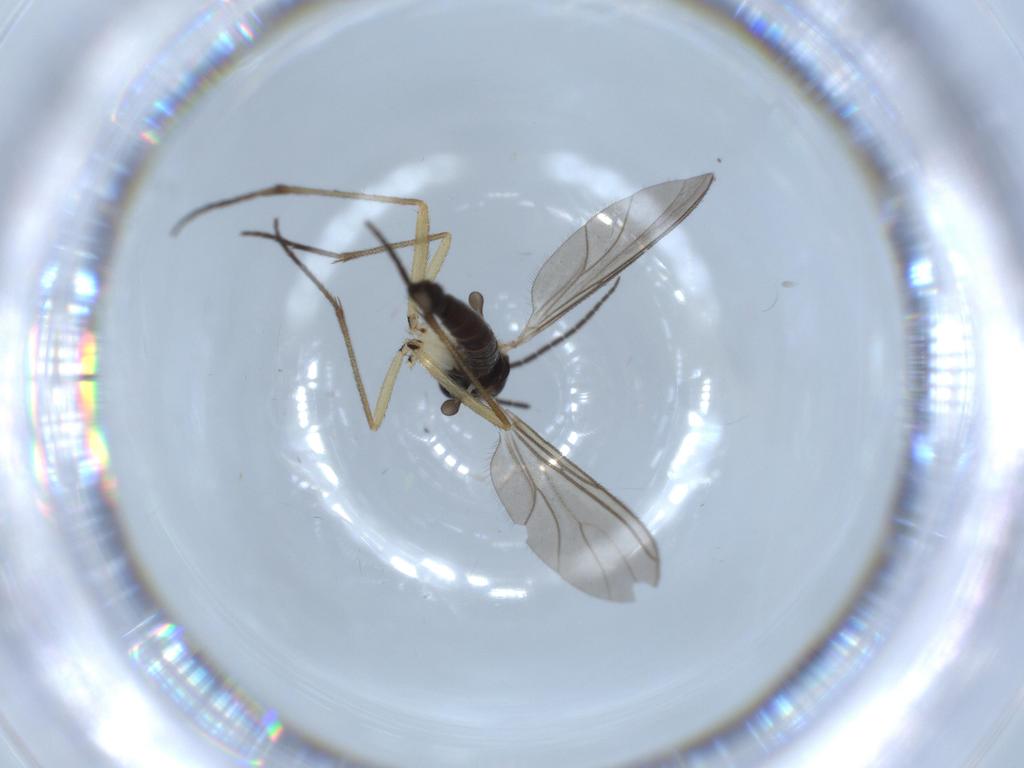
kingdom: Animalia
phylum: Arthropoda
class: Insecta
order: Diptera
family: Sciaridae
